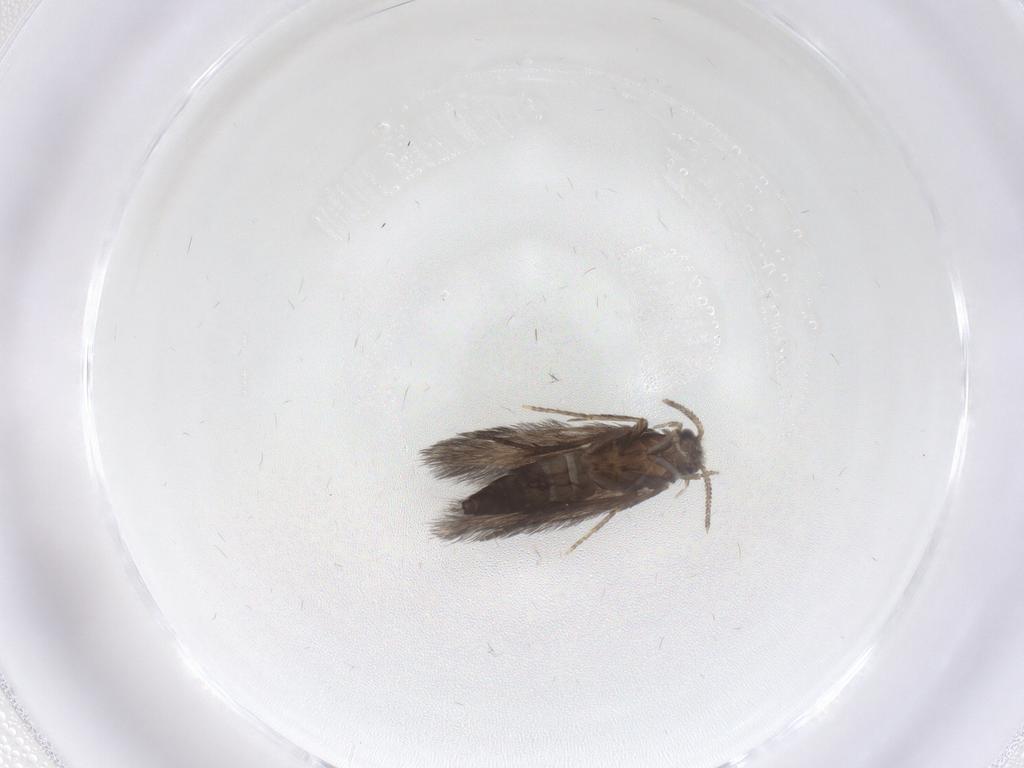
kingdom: Animalia
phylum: Arthropoda
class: Insecta
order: Trichoptera
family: Hydroptilidae
